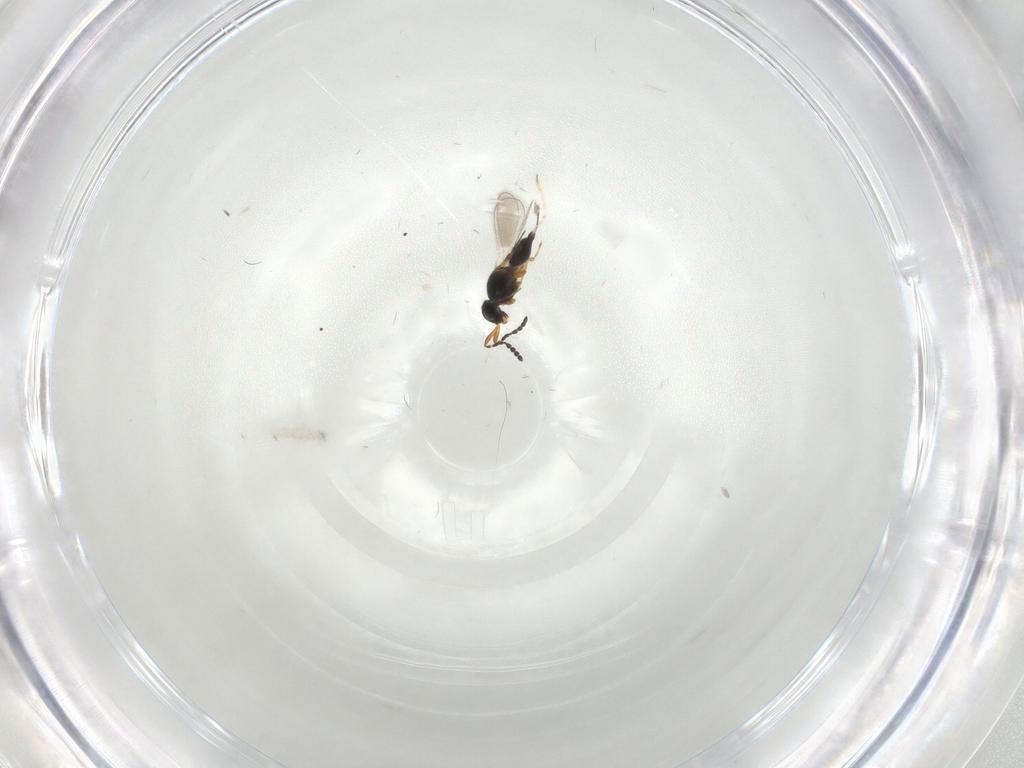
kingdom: Animalia
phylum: Arthropoda
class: Insecta
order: Hymenoptera
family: Platygastridae
